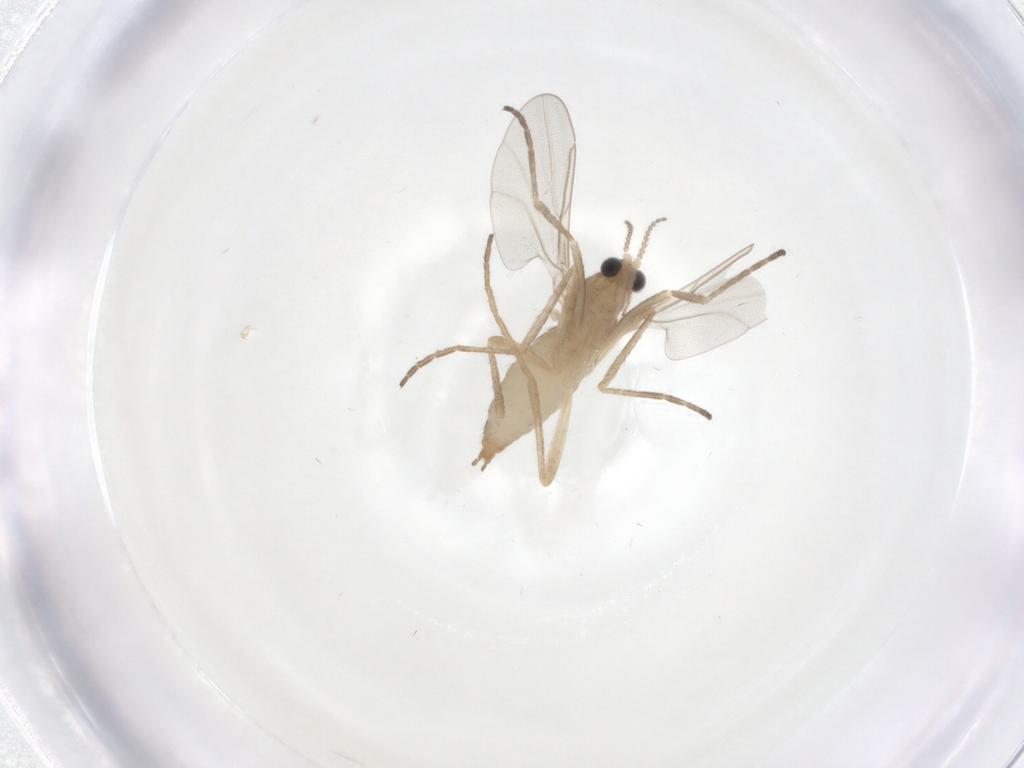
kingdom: Animalia
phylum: Arthropoda
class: Insecta
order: Diptera
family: Cecidomyiidae
